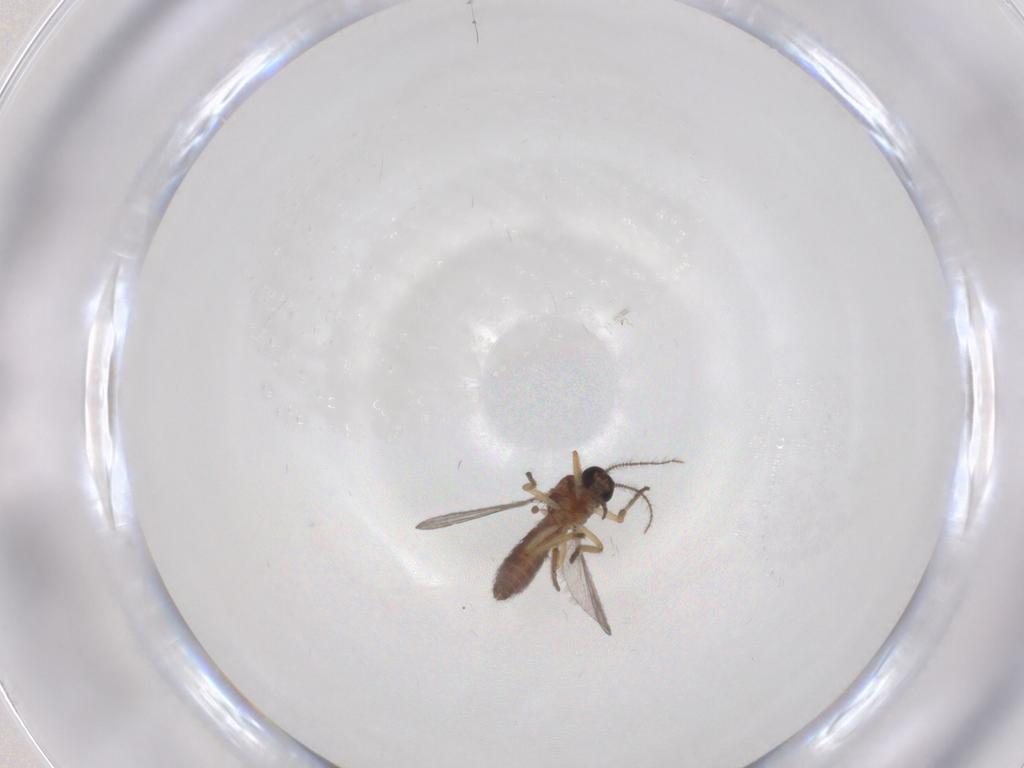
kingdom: Animalia
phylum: Arthropoda
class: Insecta
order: Diptera
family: Ceratopogonidae
